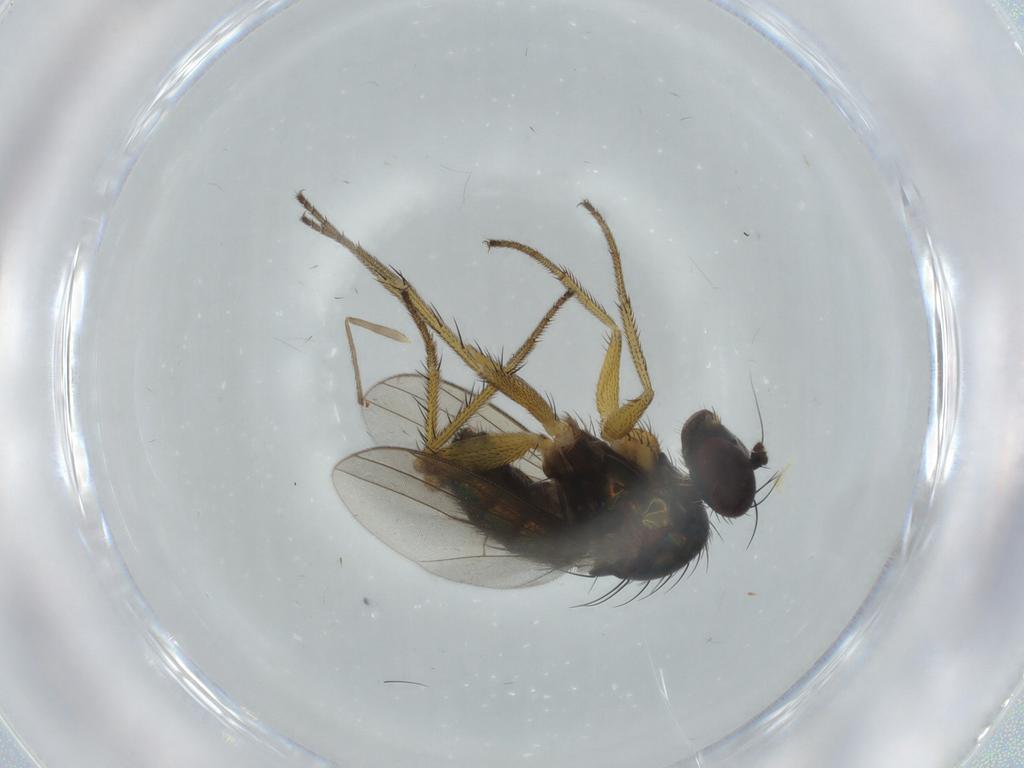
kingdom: Animalia
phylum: Arthropoda
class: Insecta
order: Diptera
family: Dolichopodidae
